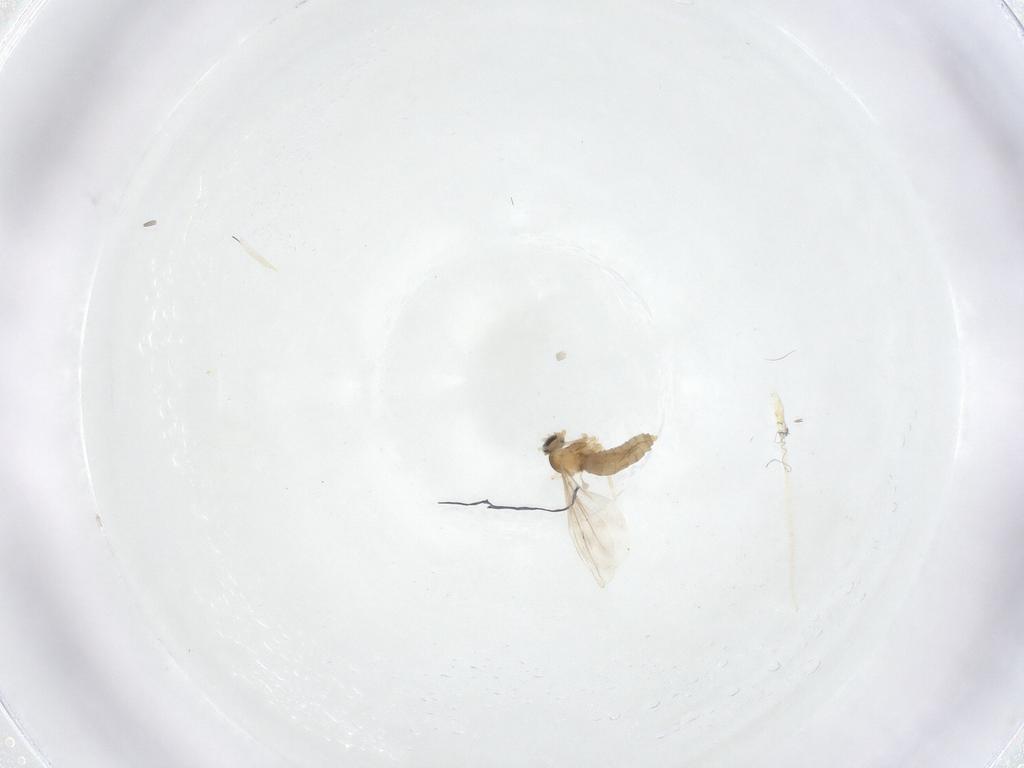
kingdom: Animalia
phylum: Arthropoda
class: Insecta
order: Diptera
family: Cecidomyiidae
